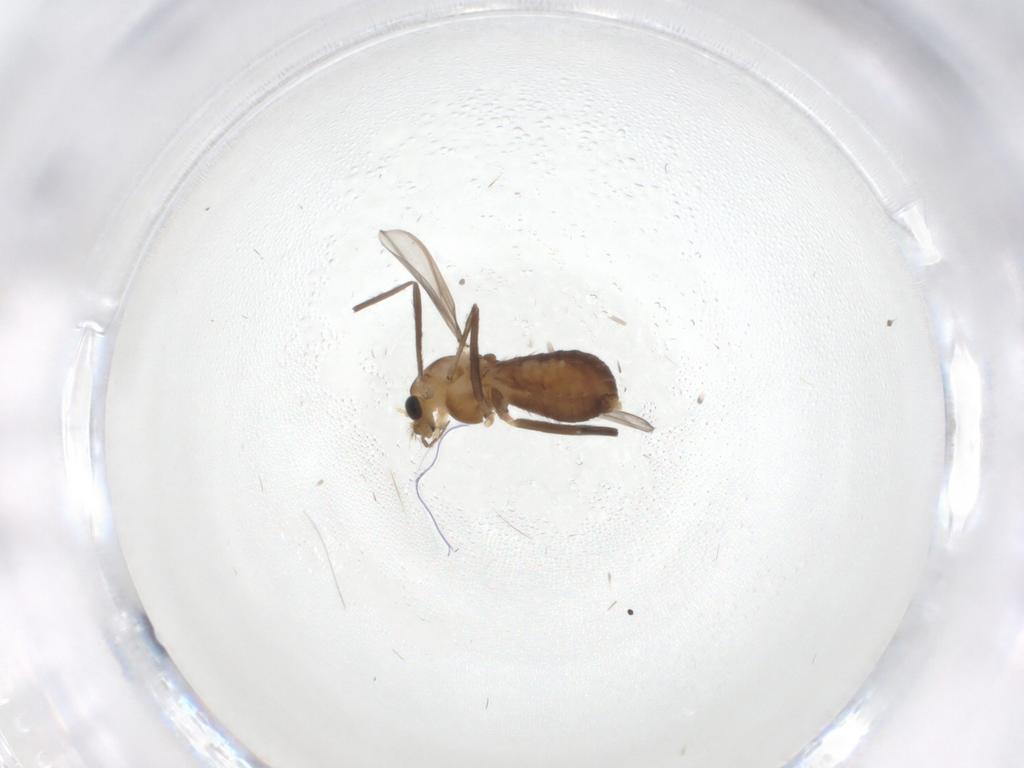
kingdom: Animalia
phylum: Arthropoda
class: Insecta
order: Diptera
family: Chironomidae
